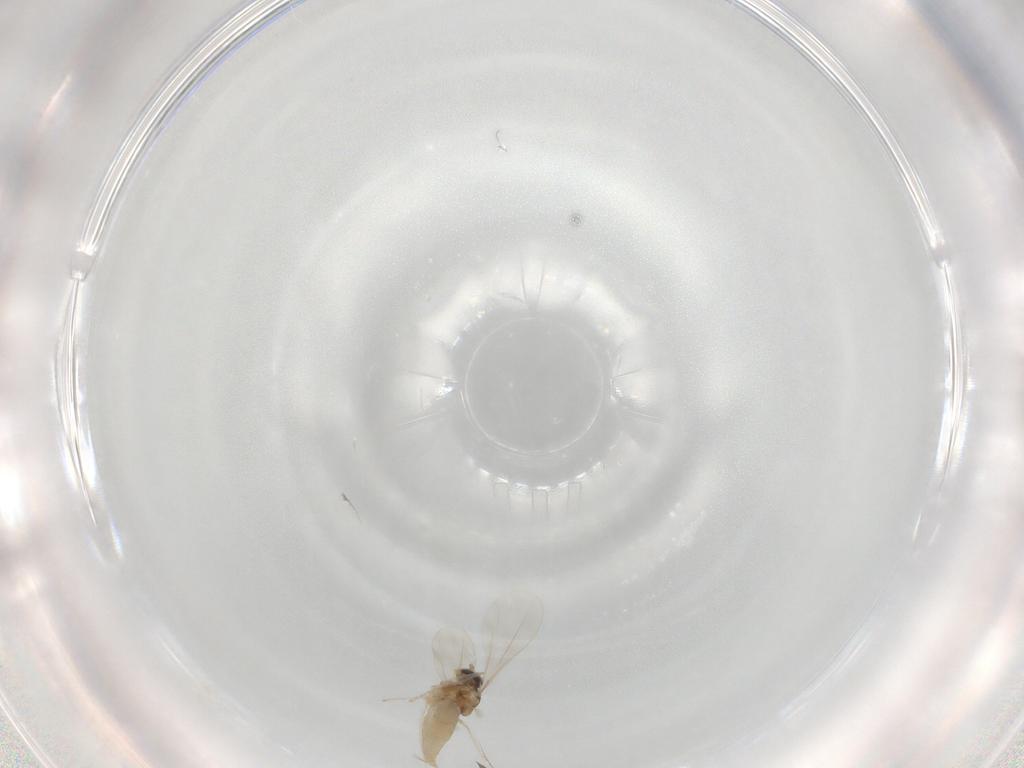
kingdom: Animalia
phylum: Arthropoda
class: Insecta
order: Diptera
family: Cecidomyiidae
